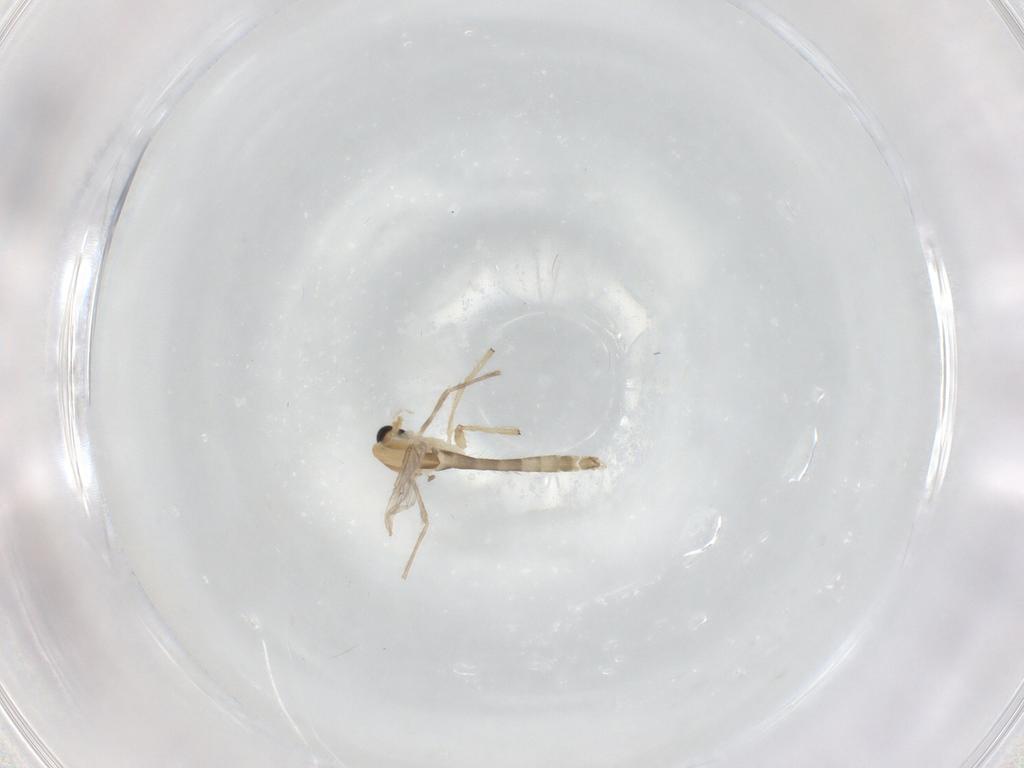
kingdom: Animalia
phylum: Arthropoda
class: Insecta
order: Diptera
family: Chironomidae
